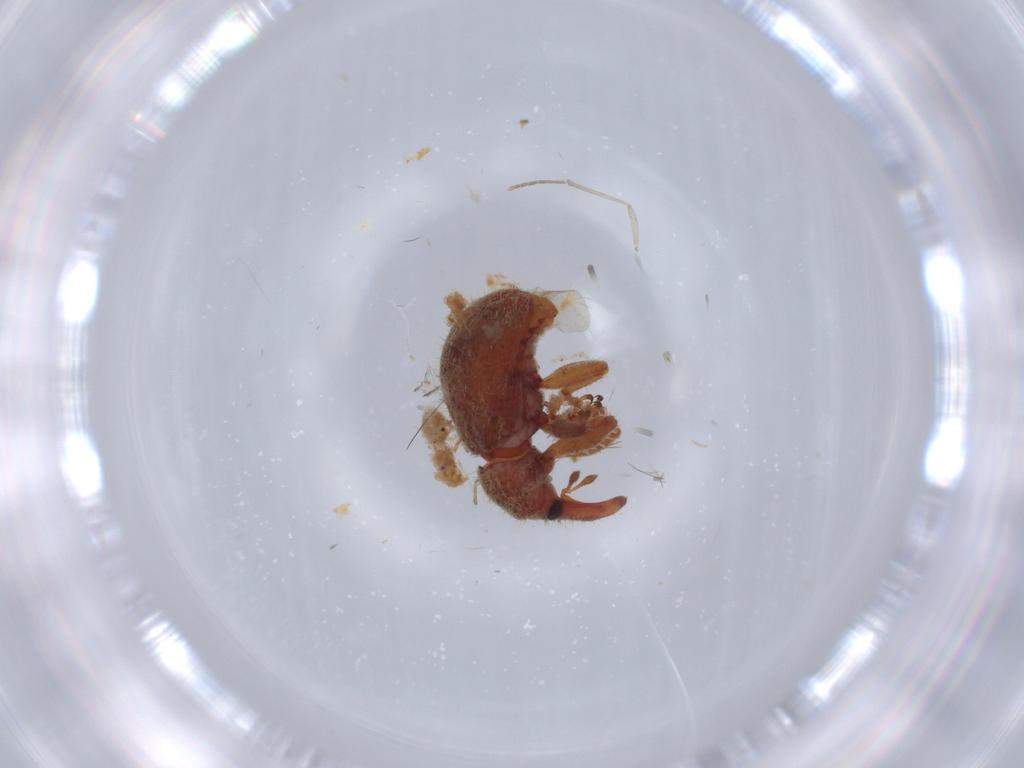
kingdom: Animalia
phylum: Arthropoda
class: Insecta
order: Coleoptera
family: Curculionidae
